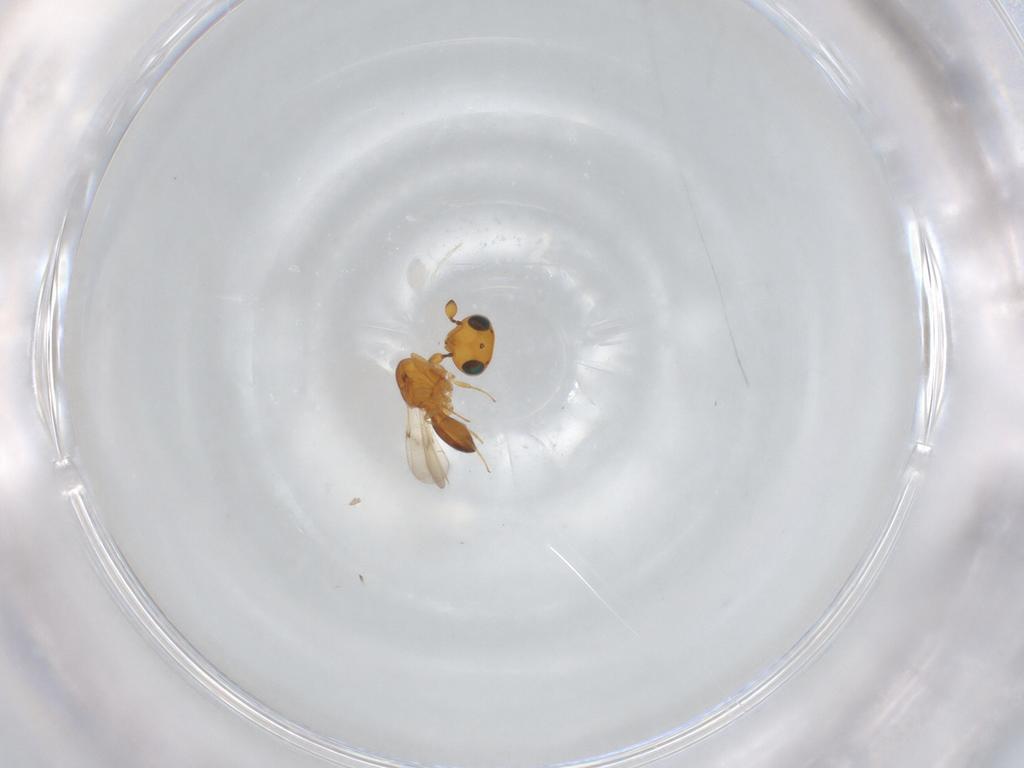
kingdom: Animalia
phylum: Arthropoda
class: Insecta
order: Hymenoptera
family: Scelionidae
